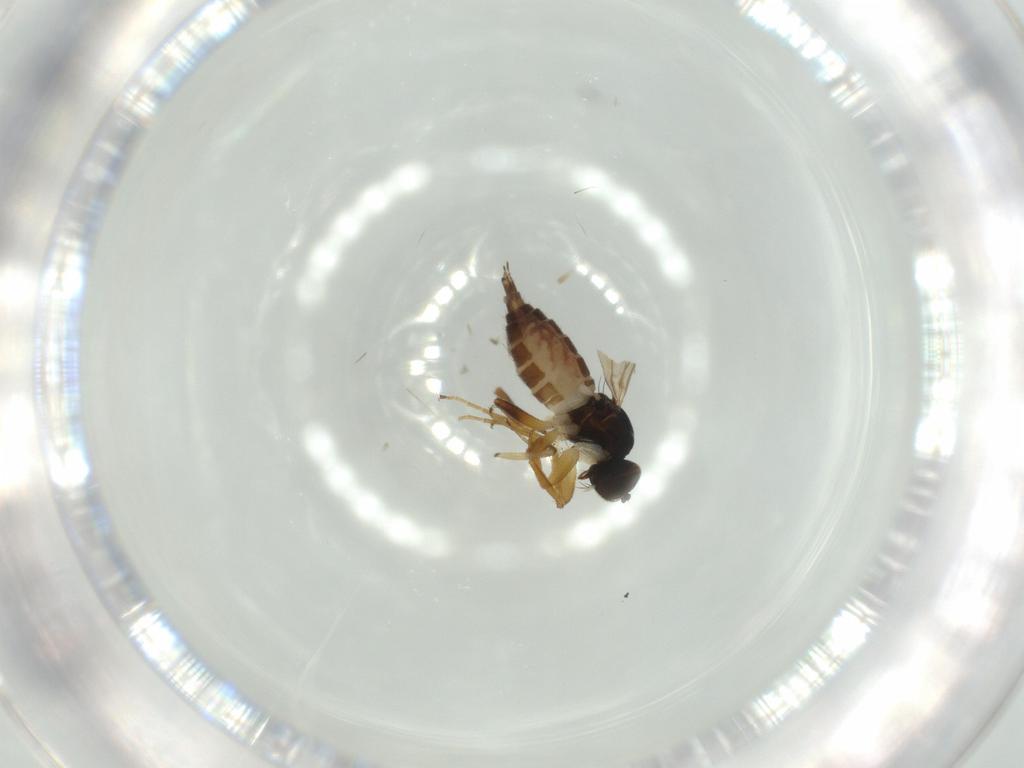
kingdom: Animalia
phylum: Arthropoda
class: Insecta
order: Diptera
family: Hybotidae
